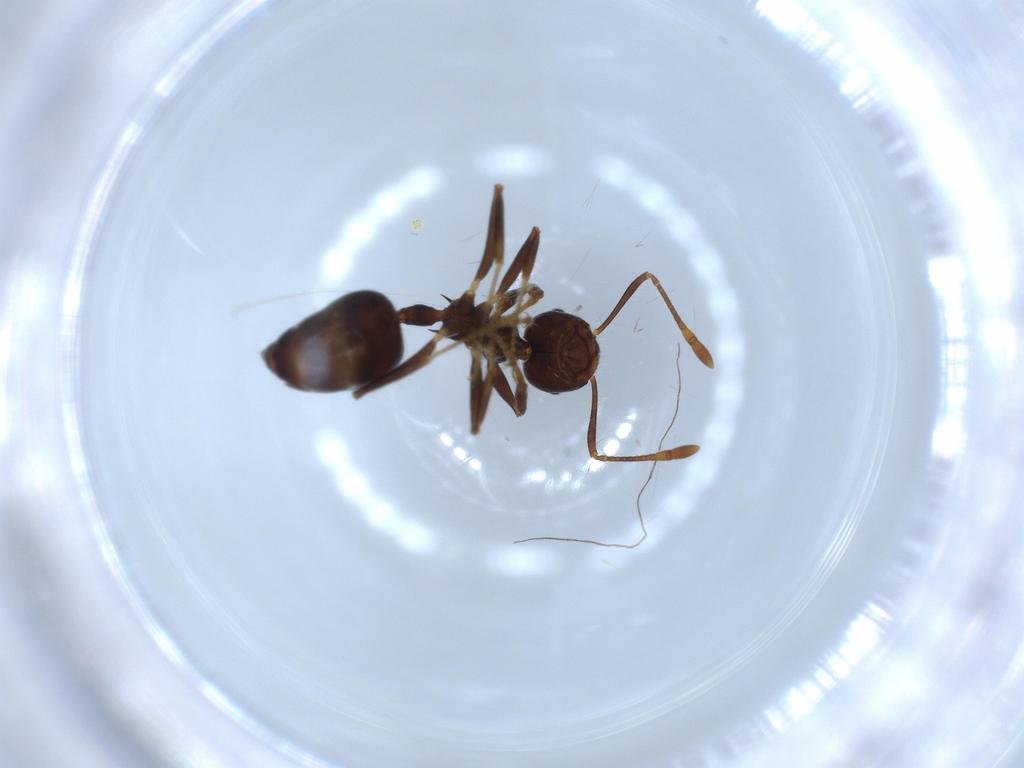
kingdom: Animalia
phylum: Arthropoda
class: Insecta
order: Hymenoptera
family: Formicidae
